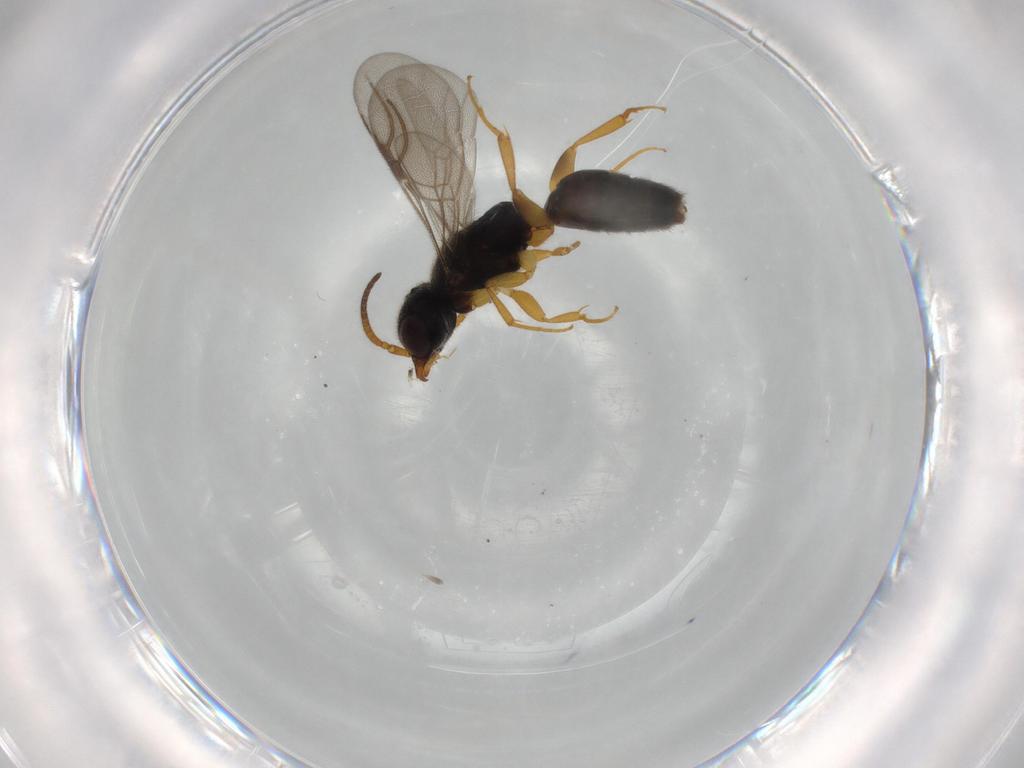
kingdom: Animalia
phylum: Arthropoda
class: Insecta
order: Hymenoptera
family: Bethylidae
